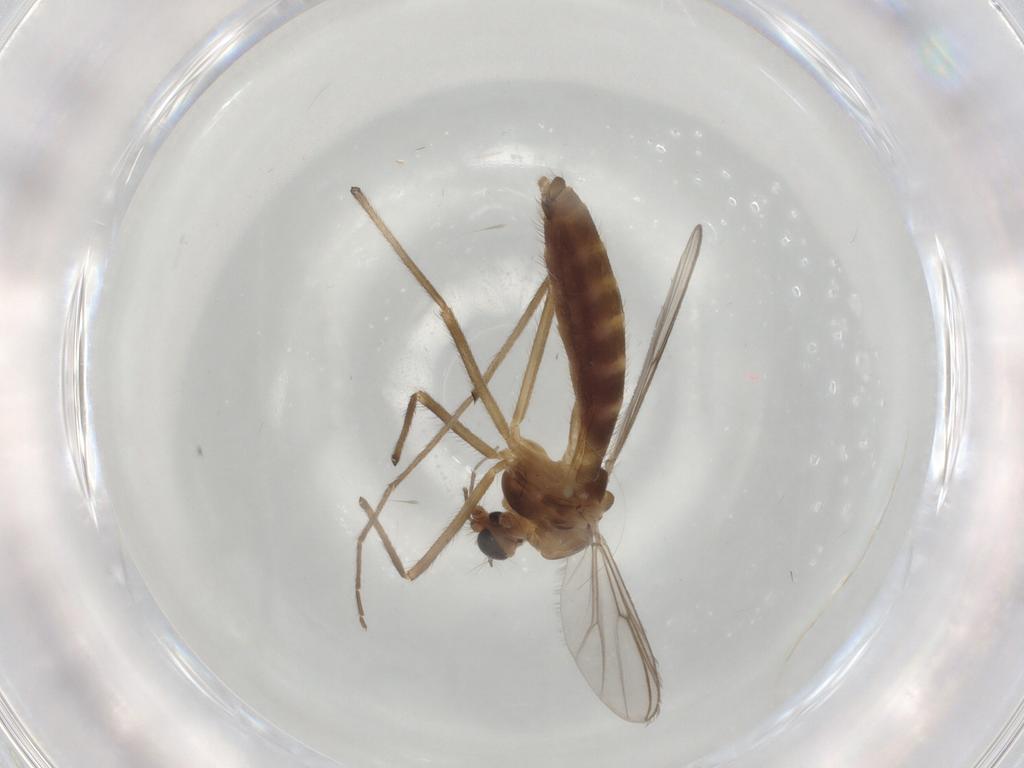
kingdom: Animalia
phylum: Arthropoda
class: Insecta
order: Diptera
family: Chironomidae
